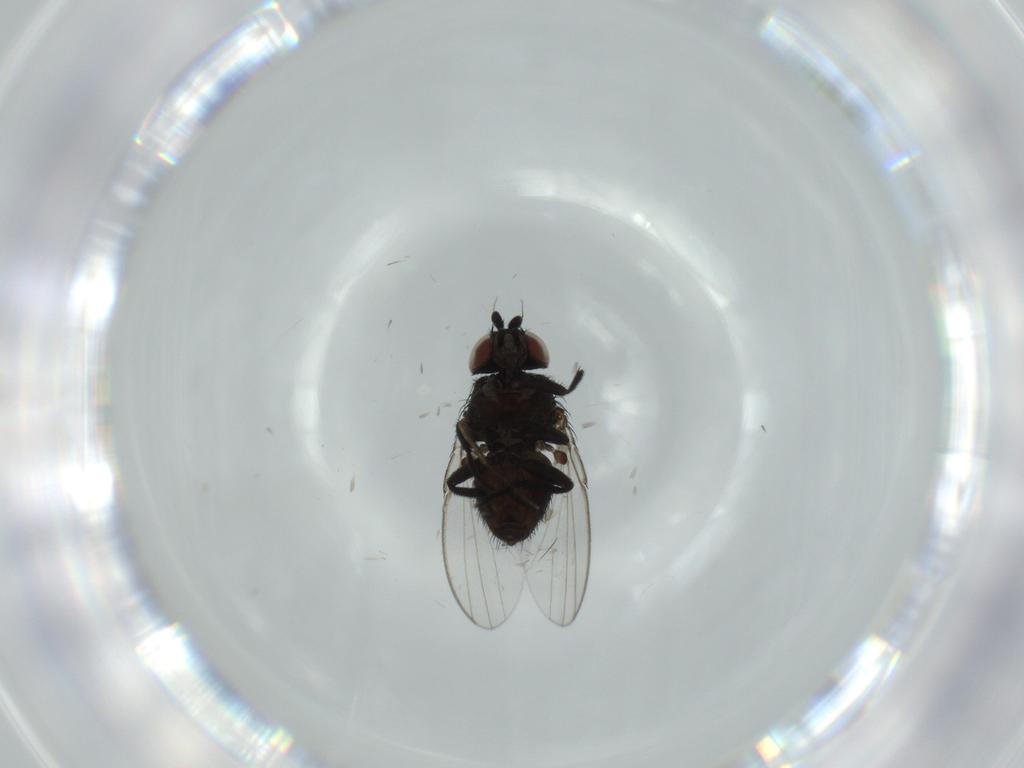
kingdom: Animalia
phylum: Arthropoda
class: Insecta
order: Diptera
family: Milichiidae
